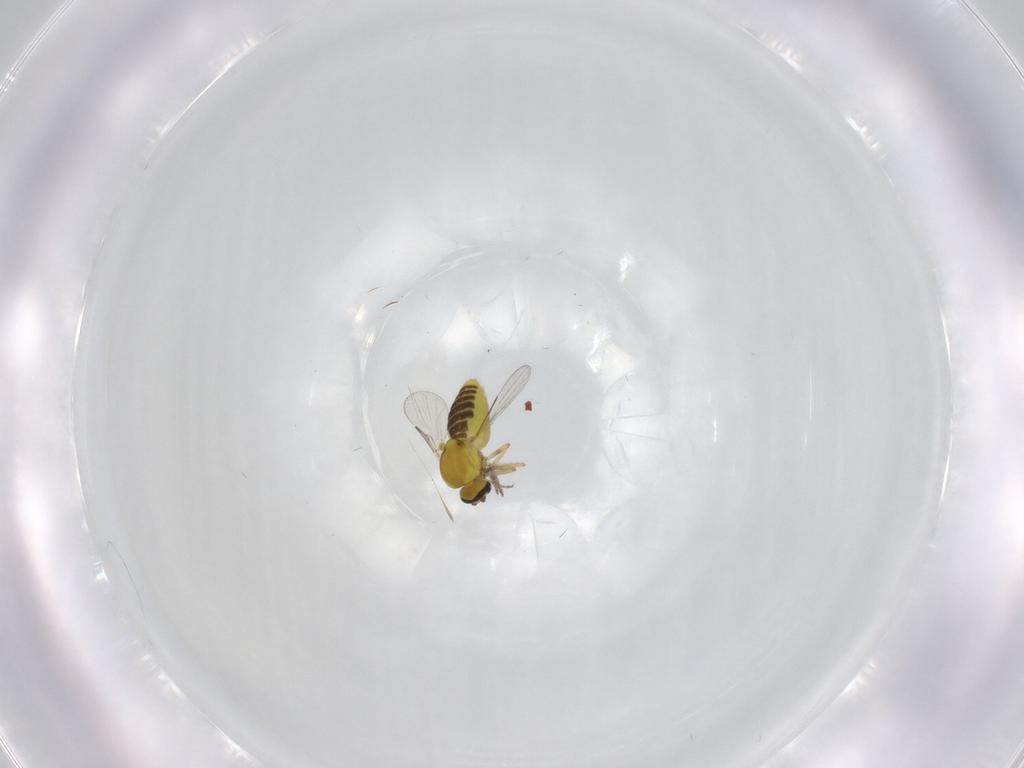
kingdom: Animalia
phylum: Arthropoda
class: Insecta
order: Diptera
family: Ceratopogonidae
